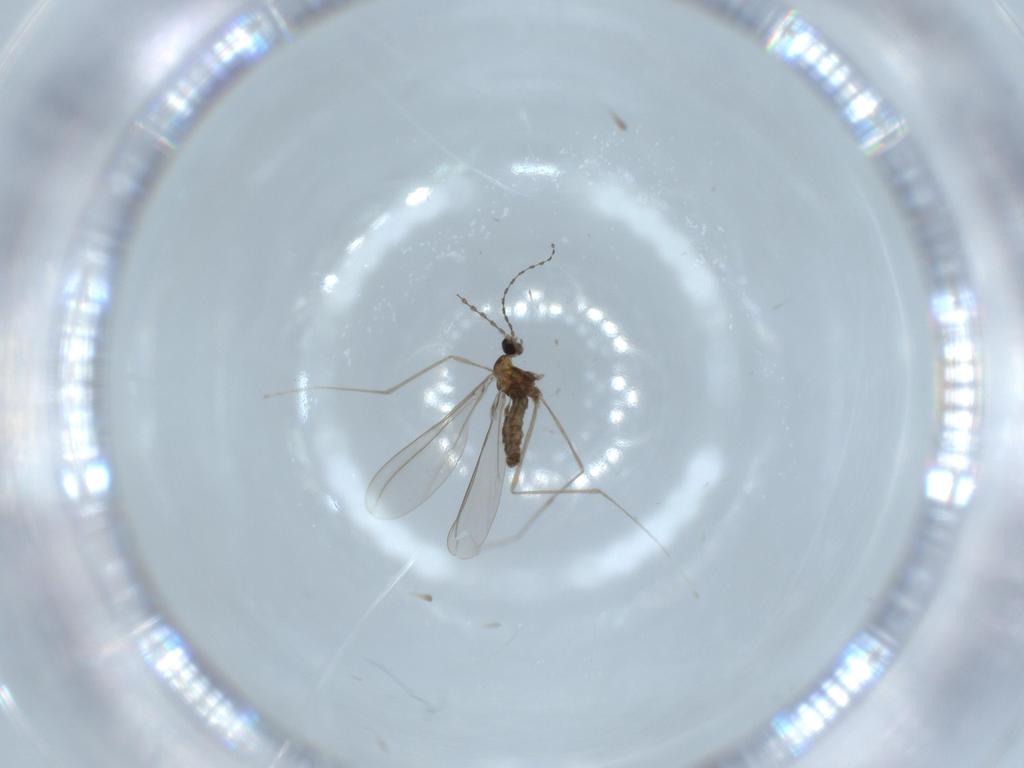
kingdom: Animalia
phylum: Arthropoda
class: Insecta
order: Diptera
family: Cecidomyiidae
